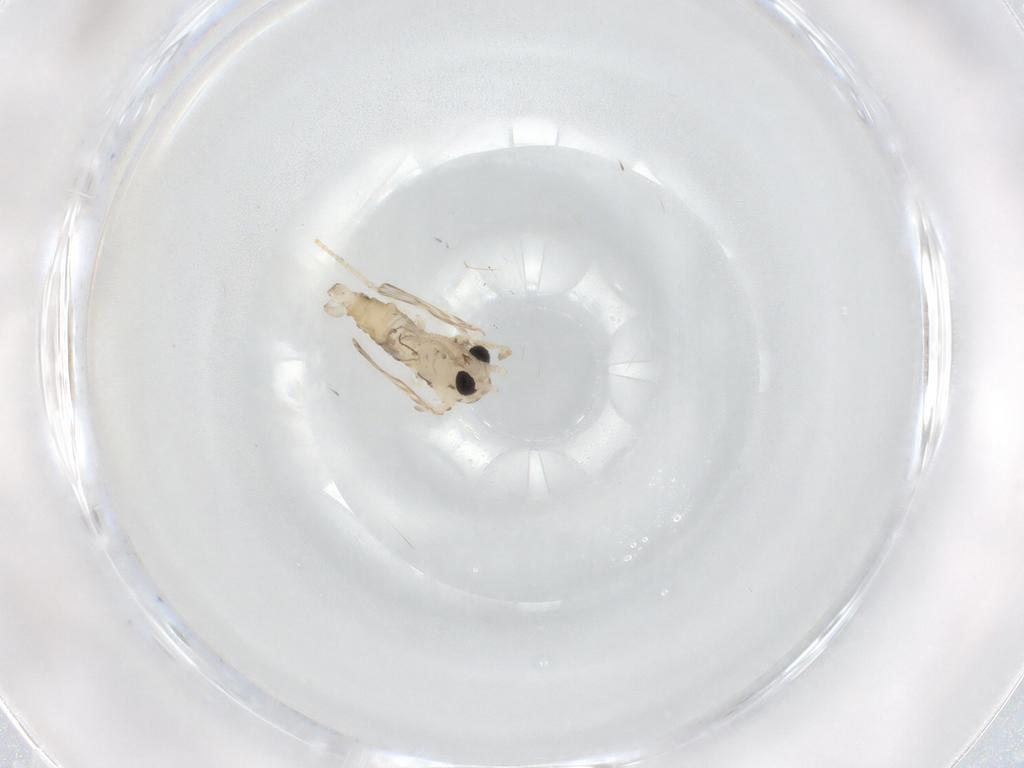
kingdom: Animalia
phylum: Arthropoda
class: Insecta
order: Diptera
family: Psychodidae
